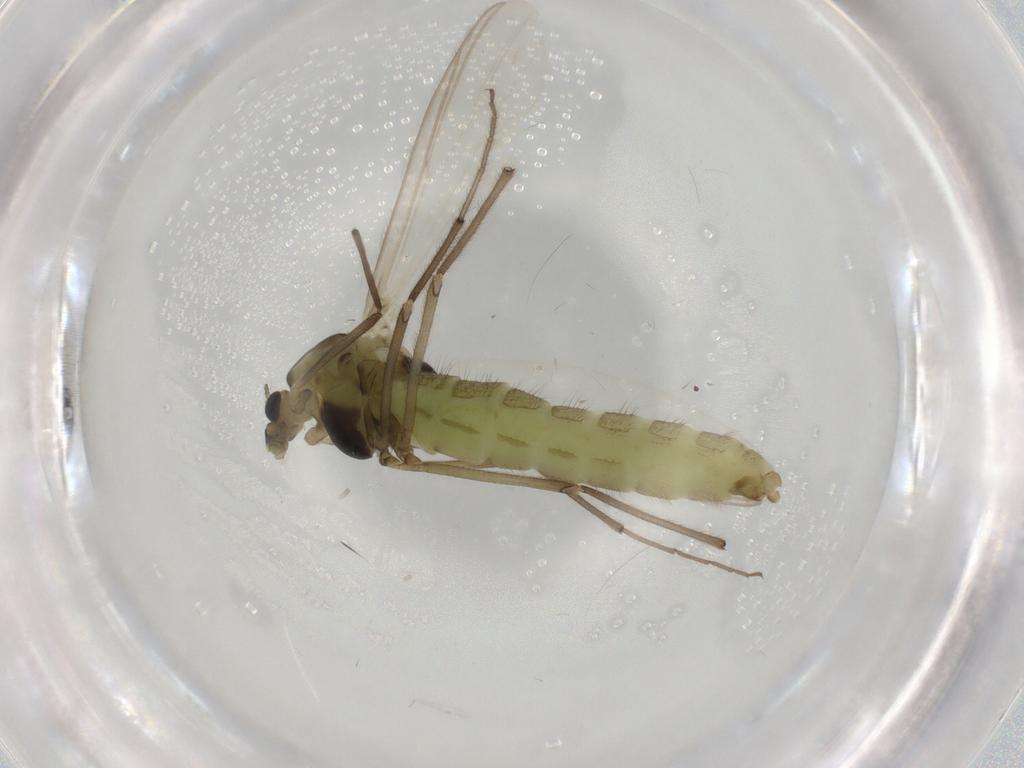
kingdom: Animalia
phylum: Arthropoda
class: Insecta
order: Diptera
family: Chironomidae
